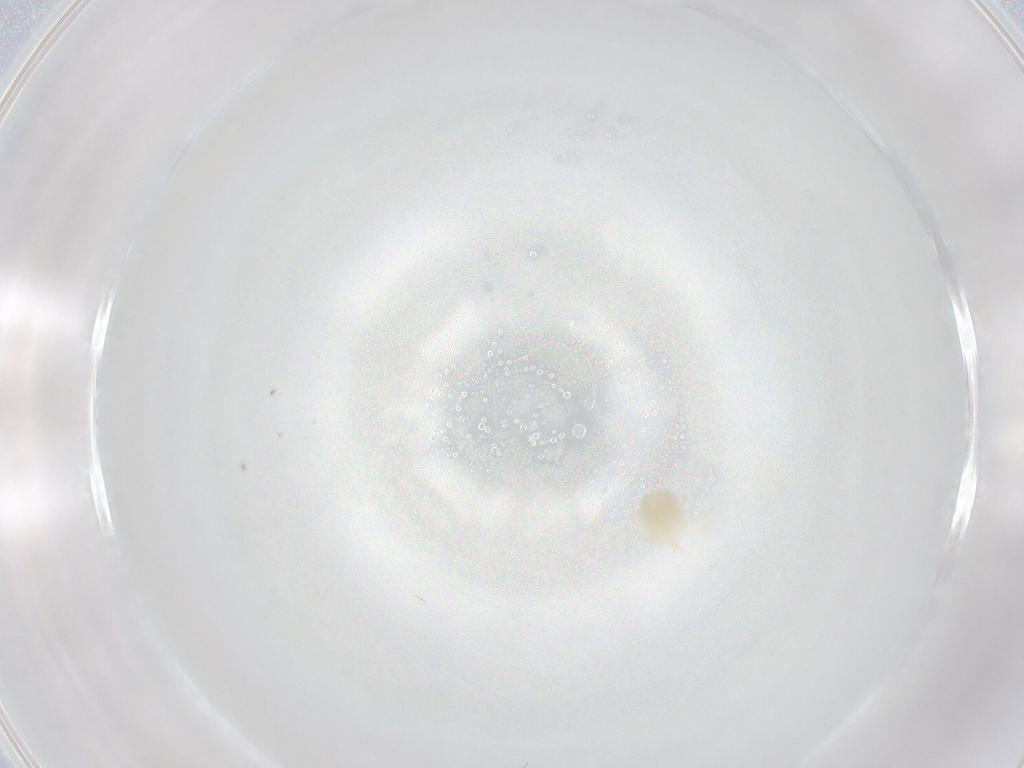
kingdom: Animalia
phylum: Arthropoda
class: Arachnida
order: Trombidiformes
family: Hydryphantidae
